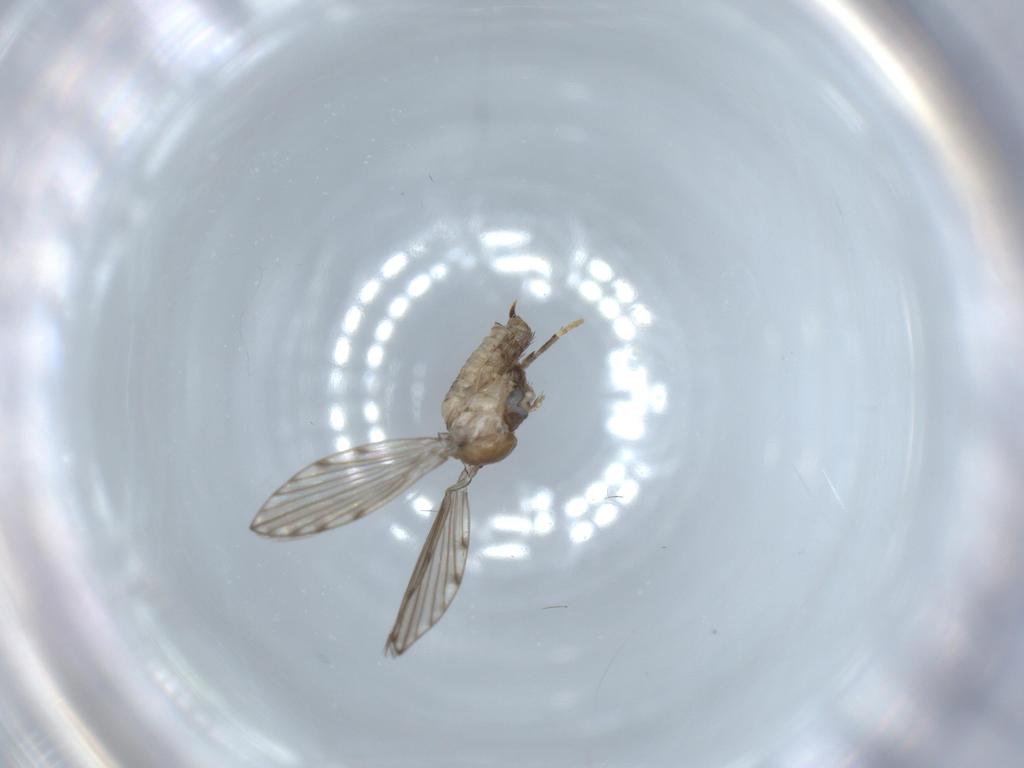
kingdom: Animalia
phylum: Arthropoda
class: Insecta
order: Diptera
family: Psychodidae
